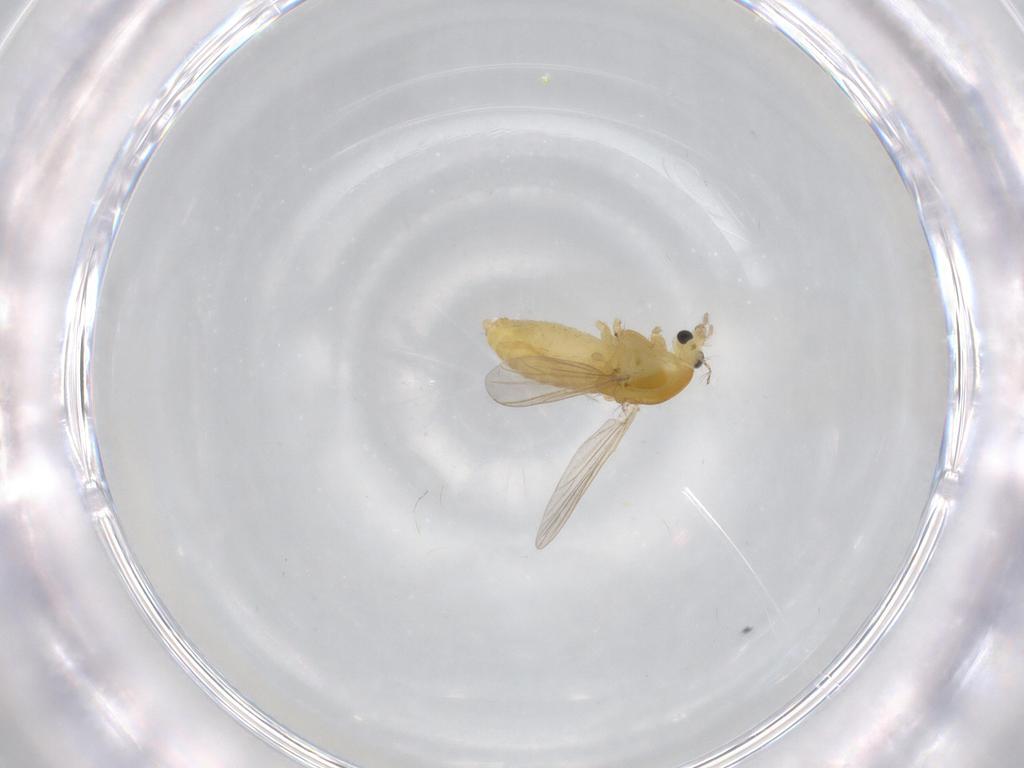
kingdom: Animalia
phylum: Arthropoda
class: Insecta
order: Diptera
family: Chironomidae
